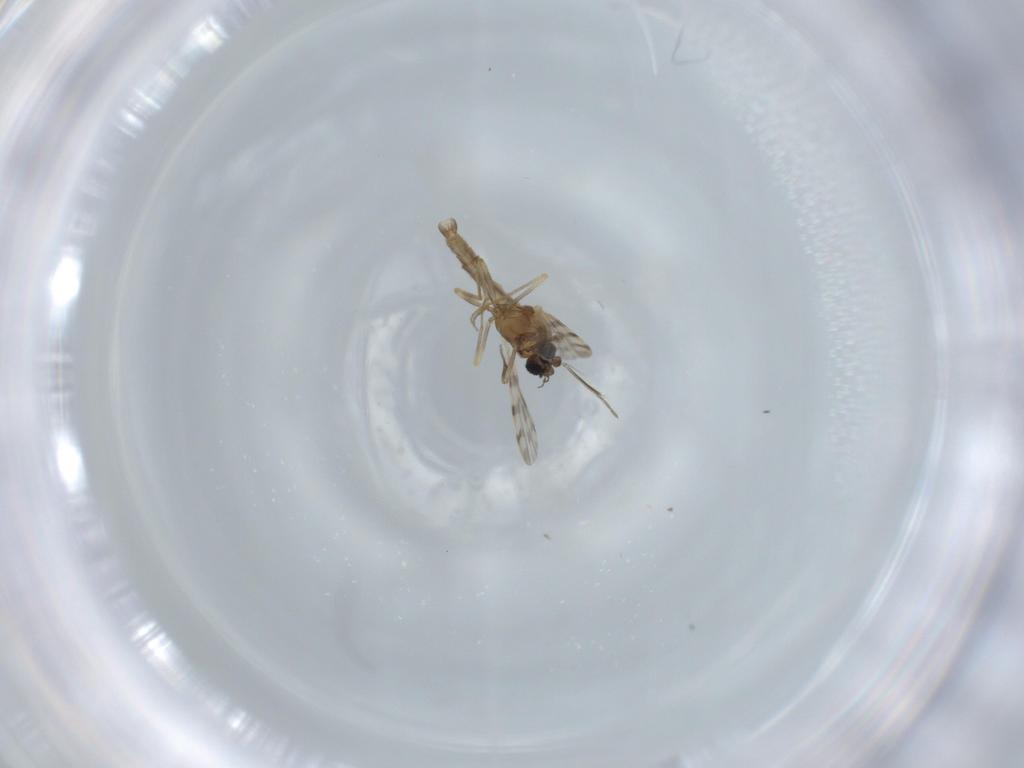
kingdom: Animalia
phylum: Arthropoda
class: Insecta
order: Diptera
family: Ceratopogonidae
